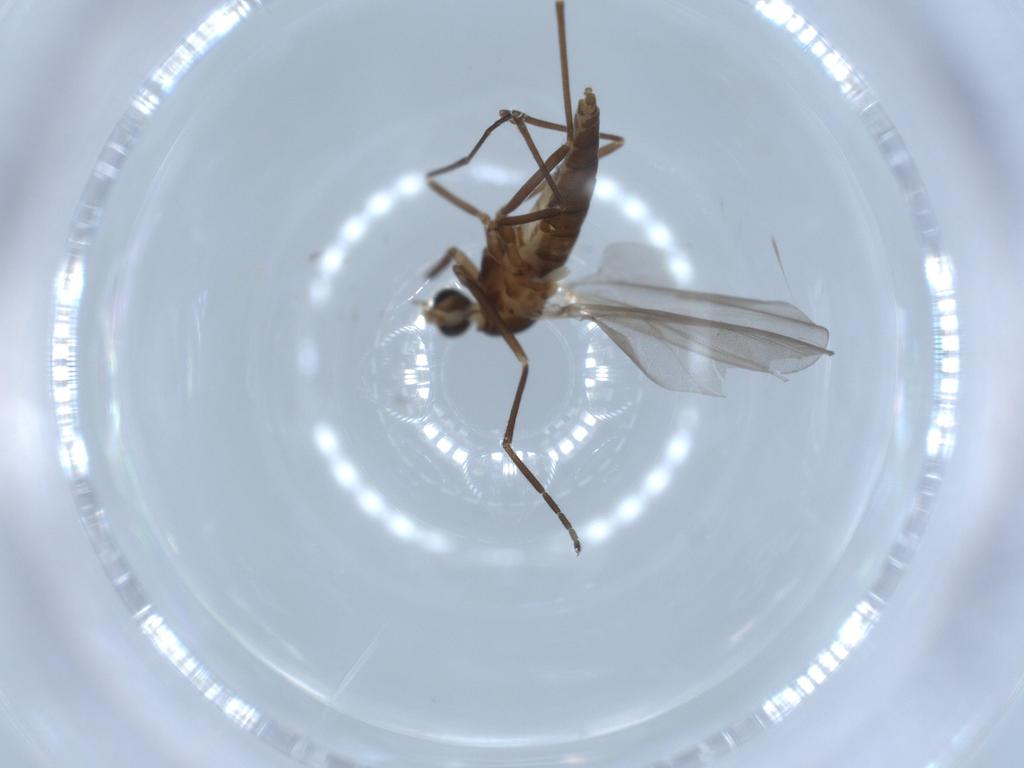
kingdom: Animalia
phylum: Arthropoda
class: Insecta
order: Diptera
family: Cecidomyiidae
